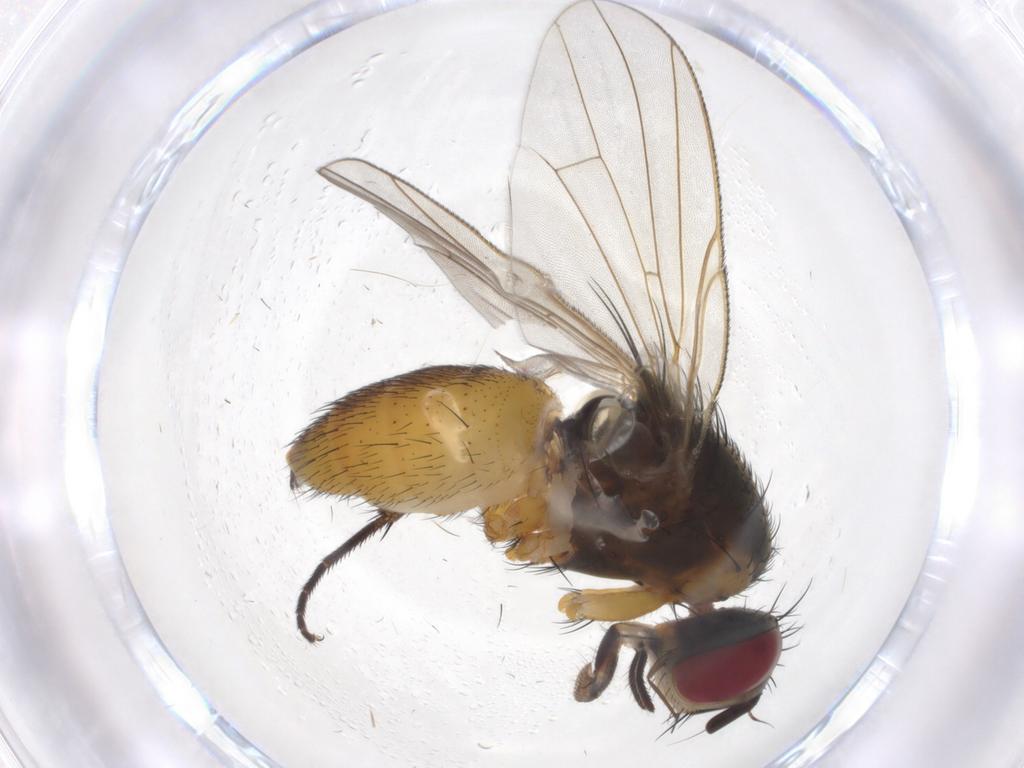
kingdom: Animalia
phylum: Arthropoda
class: Insecta
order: Diptera
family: Muscidae
